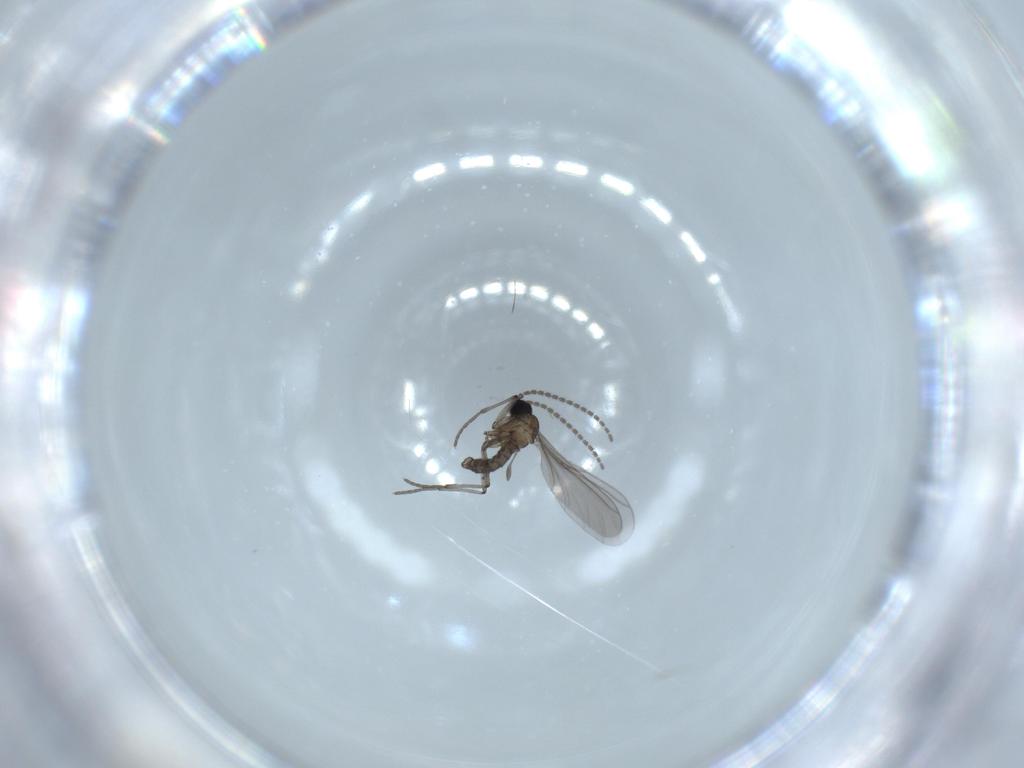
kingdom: Animalia
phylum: Arthropoda
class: Insecta
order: Diptera
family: Sciaridae
